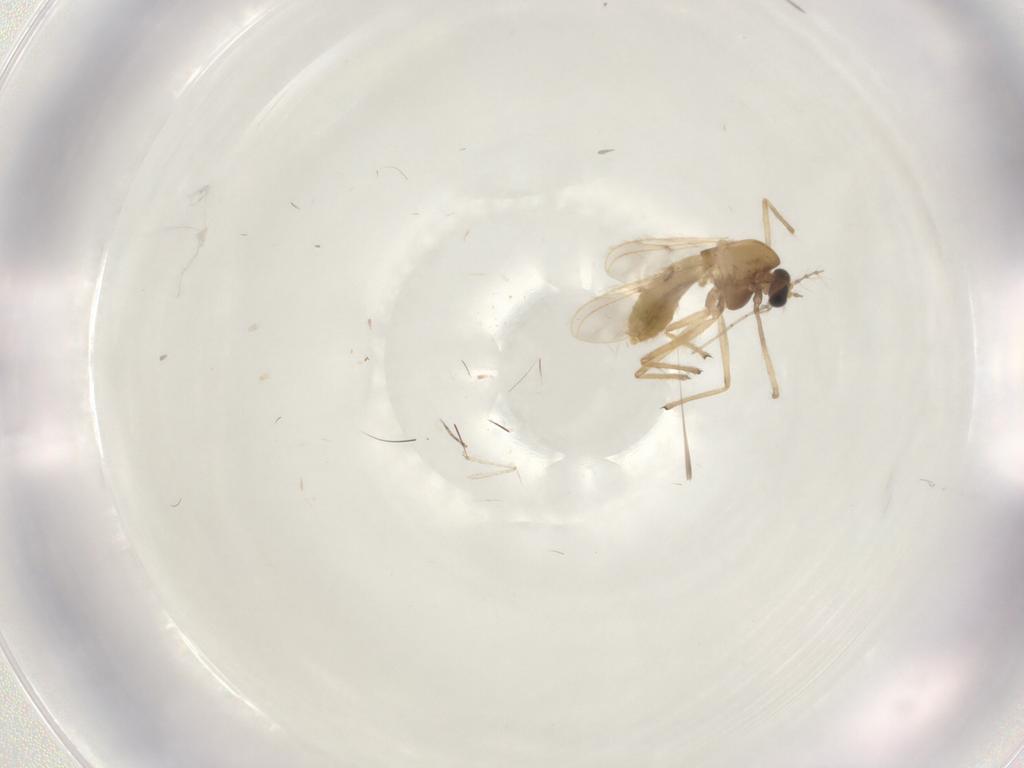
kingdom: Animalia
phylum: Arthropoda
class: Insecta
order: Diptera
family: Chironomidae
